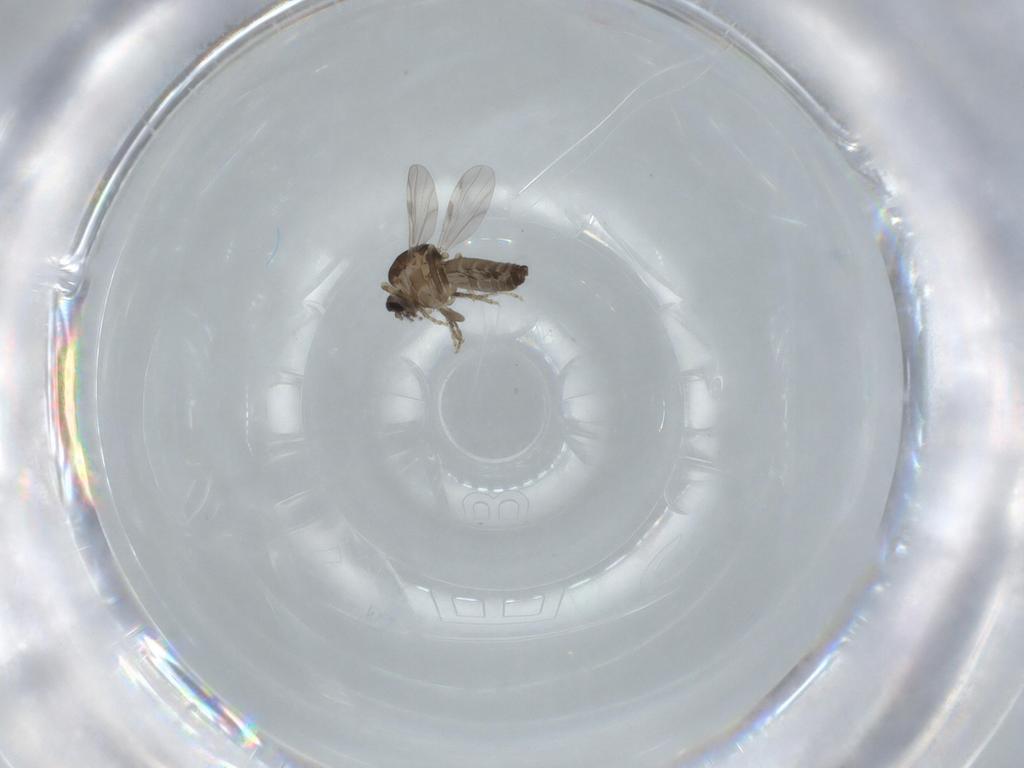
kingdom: Animalia
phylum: Arthropoda
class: Insecta
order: Diptera
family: Ceratopogonidae
